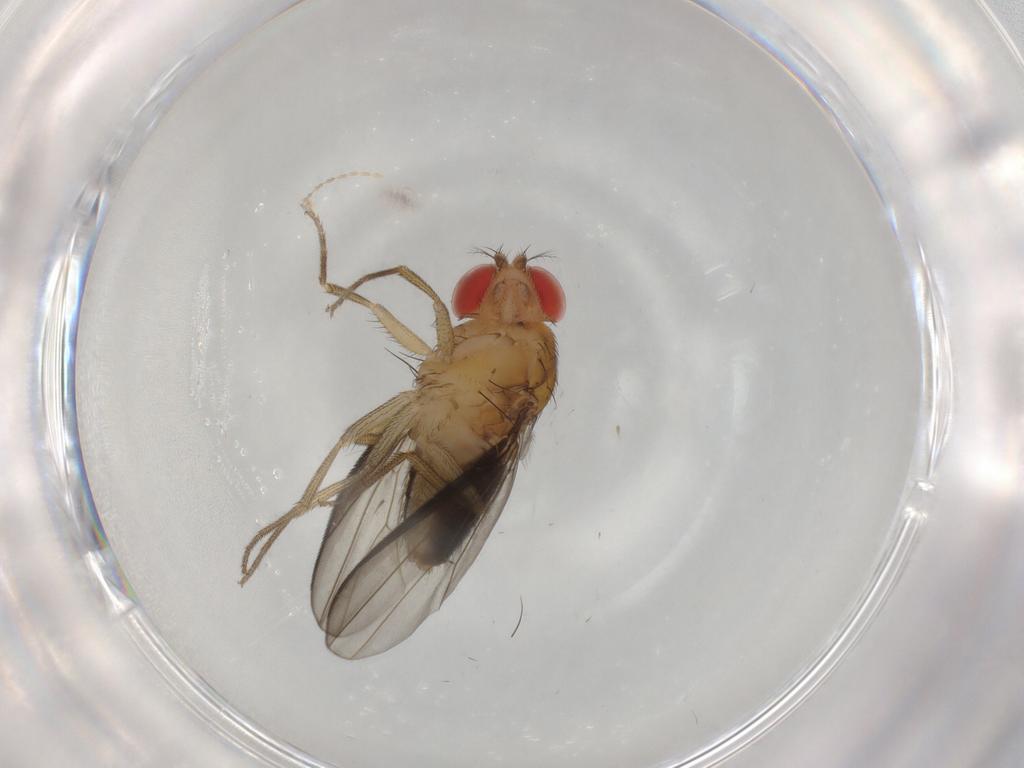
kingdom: Animalia
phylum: Arthropoda
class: Insecta
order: Diptera
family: Drosophilidae
